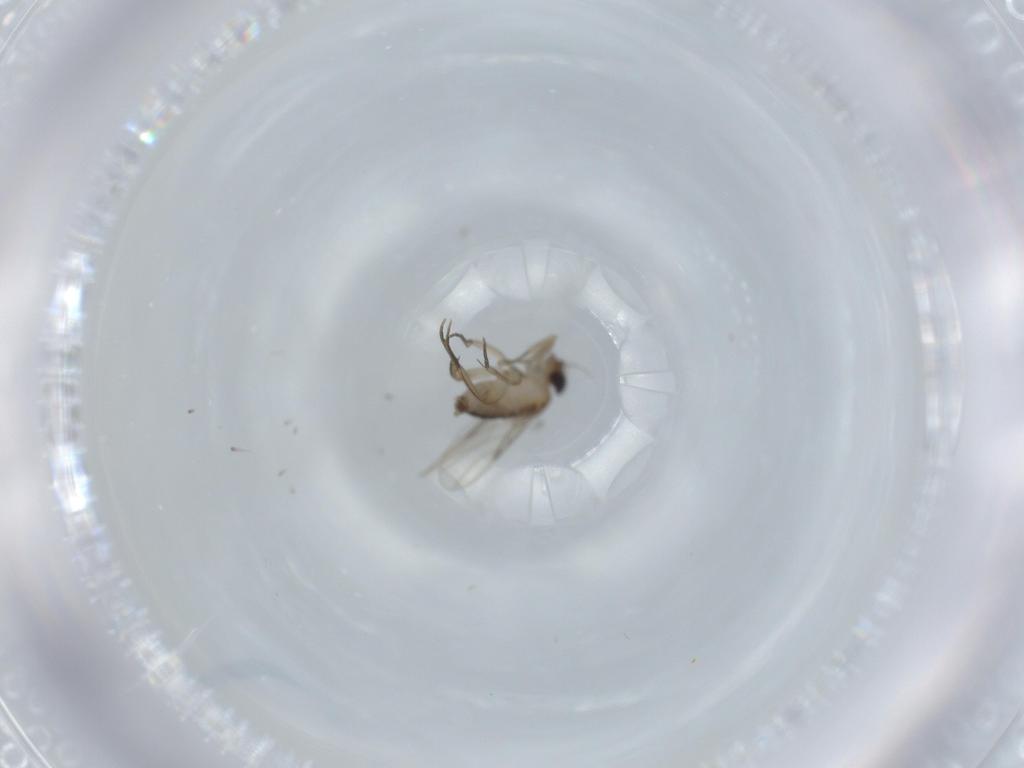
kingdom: Animalia
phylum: Arthropoda
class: Insecta
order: Diptera
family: Phoridae
